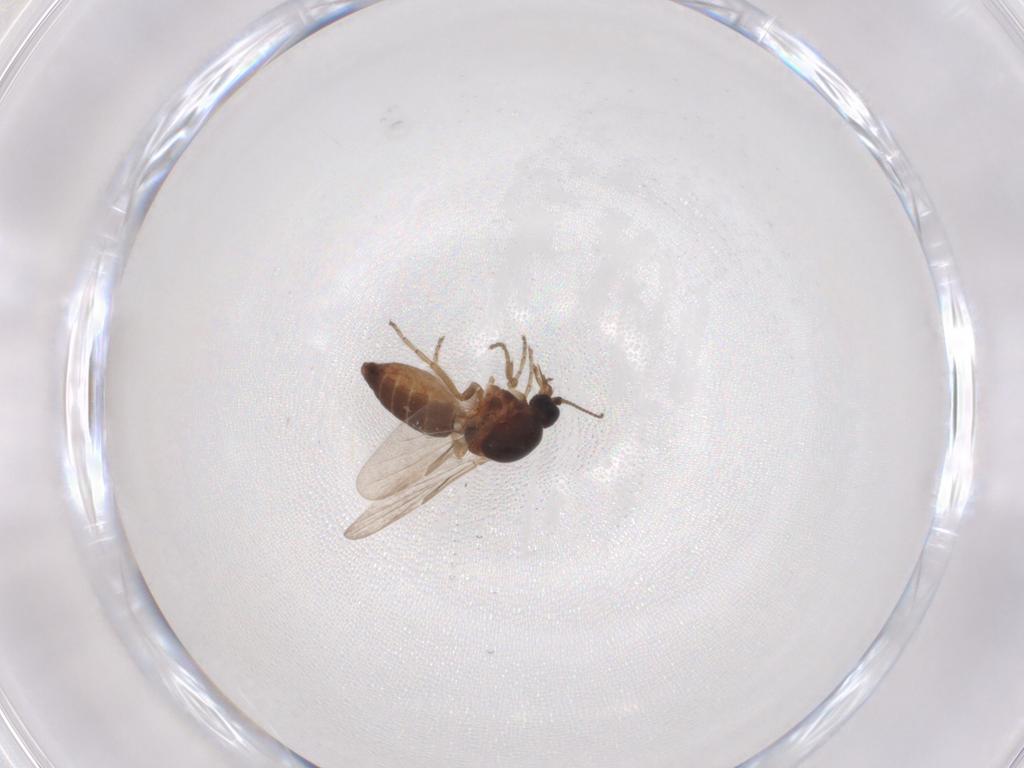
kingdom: Animalia
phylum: Arthropoda
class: Insecta
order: Diptera
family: Ceratopogonidae
